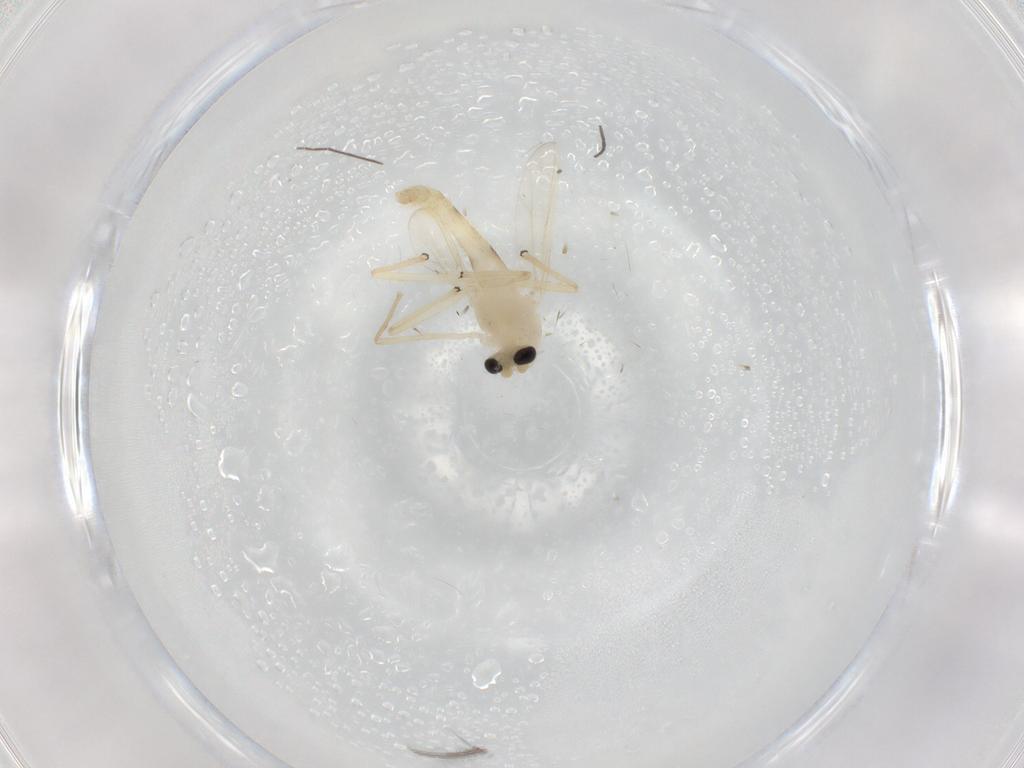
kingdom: Animalia
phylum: Arthropoda
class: Insecta
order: Diptera
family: Chironomidae
